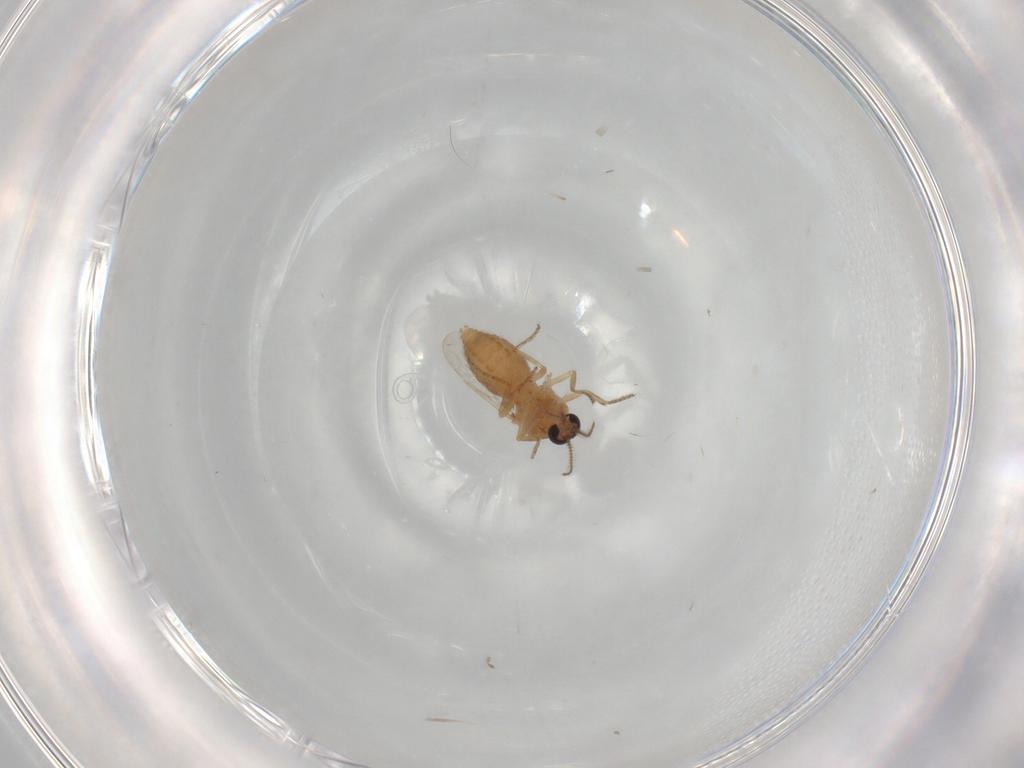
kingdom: Animalia
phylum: Arthropoda
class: Insecta
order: Diptera
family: Ceratopogonidae
